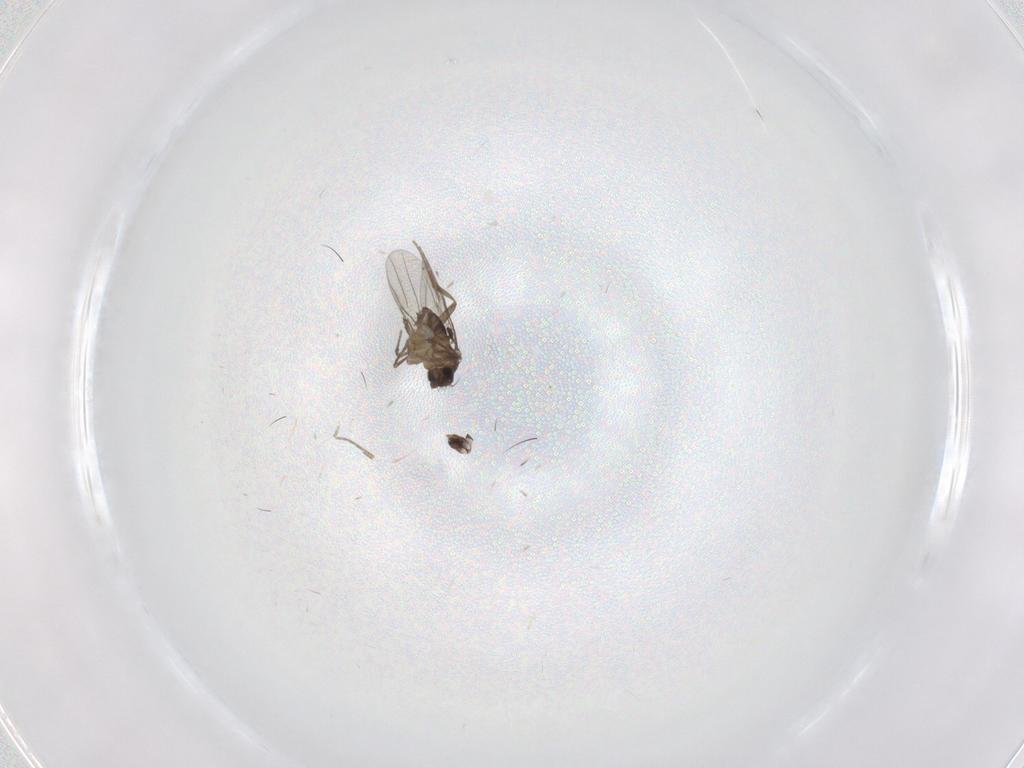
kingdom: Animalia
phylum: Arthropoda
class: Insecta
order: Diptera
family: Phoridae
